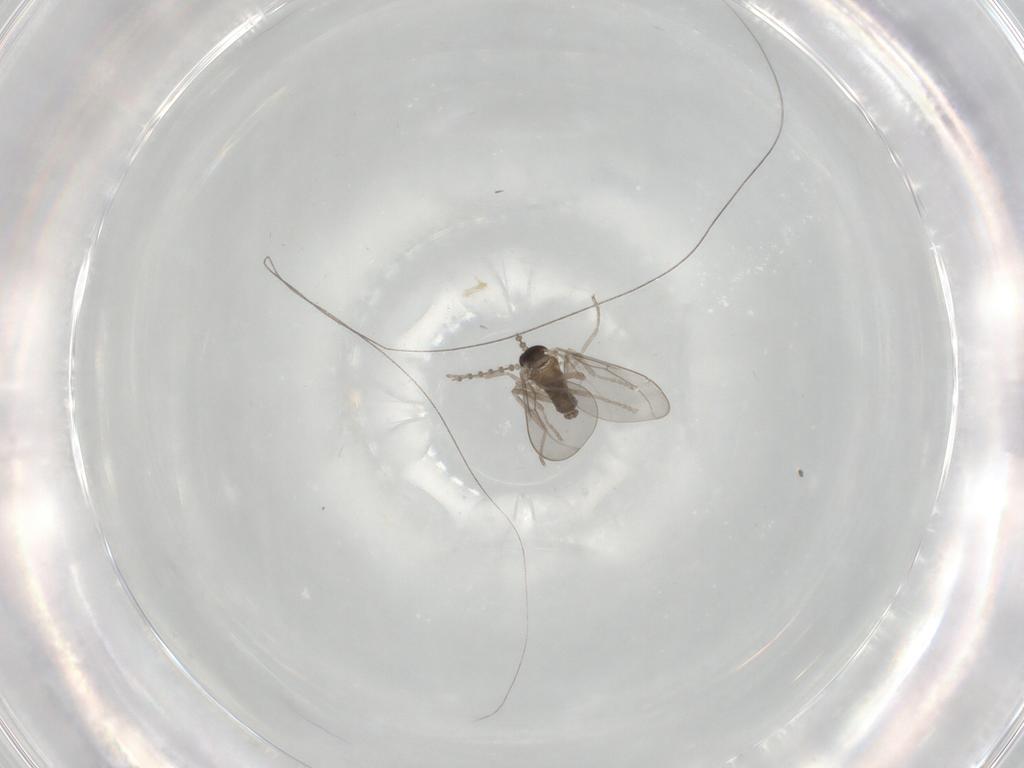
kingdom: Animalia
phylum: Arthropoda
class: Insecta
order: Diptera
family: Cecidomyiidae
